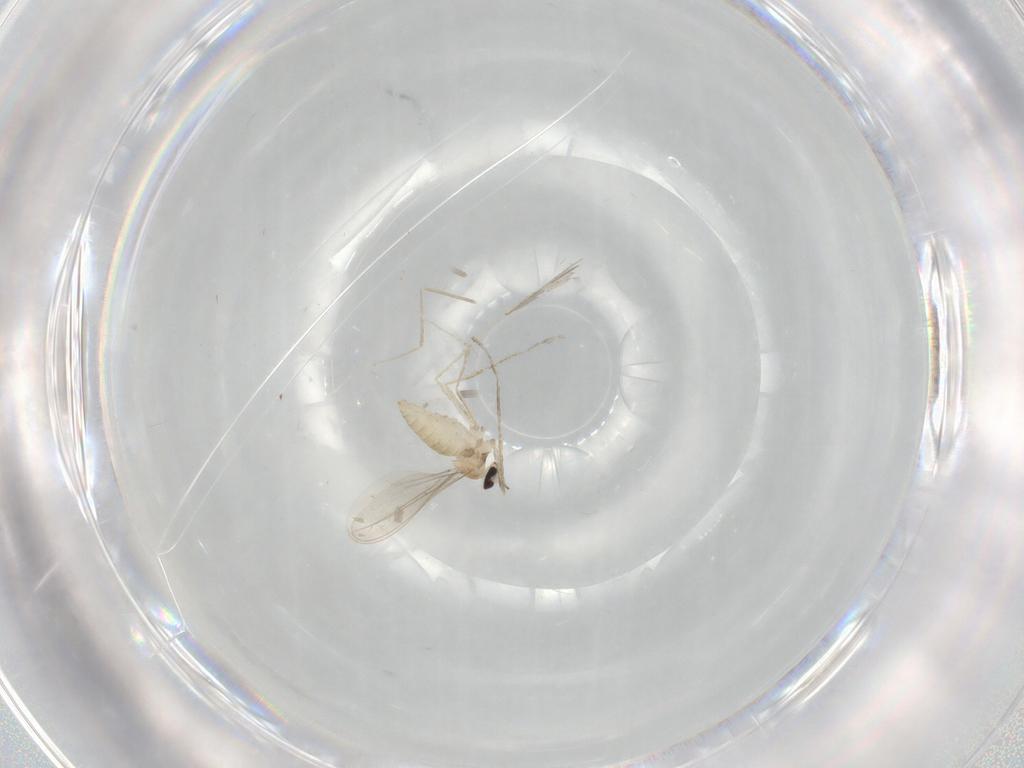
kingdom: Animalia
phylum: Arthropoda
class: Insecta
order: Diptera
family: Cecidomyiidae
